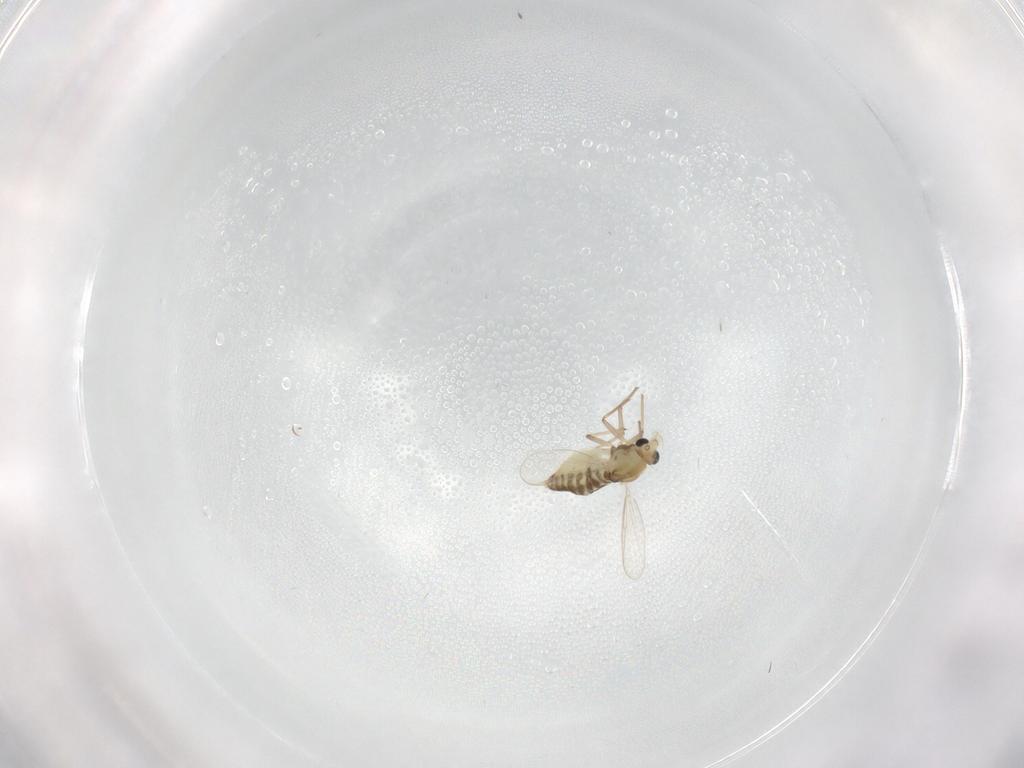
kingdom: Animalia
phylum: Arthropoda
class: Insecta
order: Diptera
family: Chironomidae
